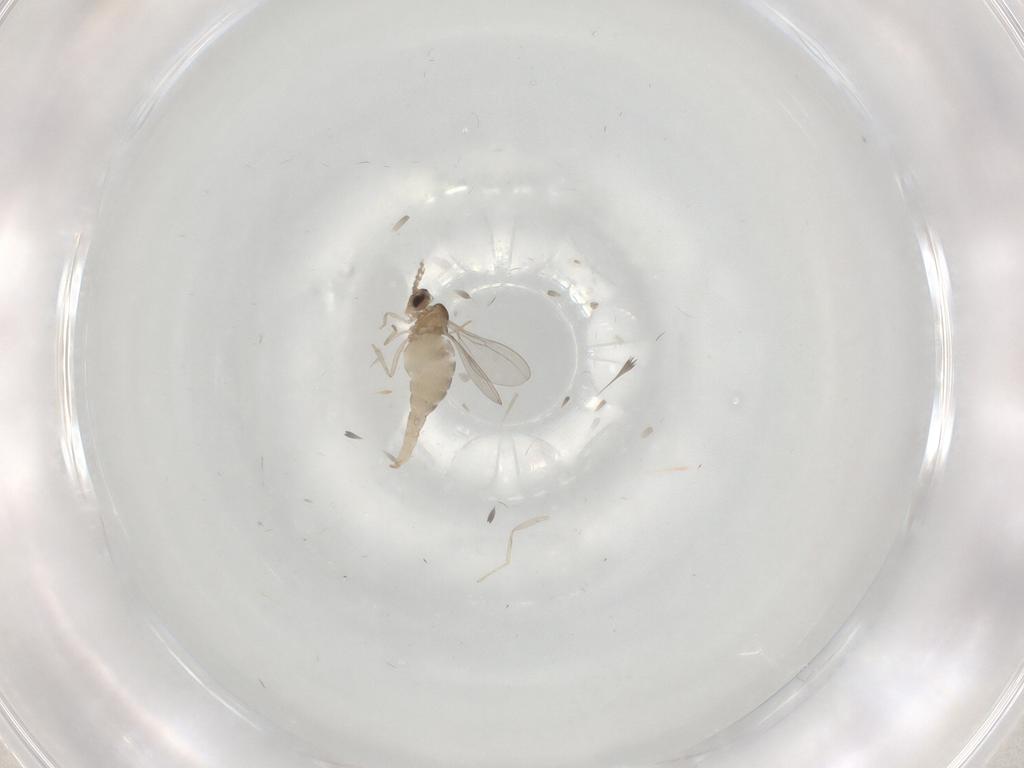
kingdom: Animalia
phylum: Arthropoda
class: Insecta
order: Diptera
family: Cecidomyiidae
